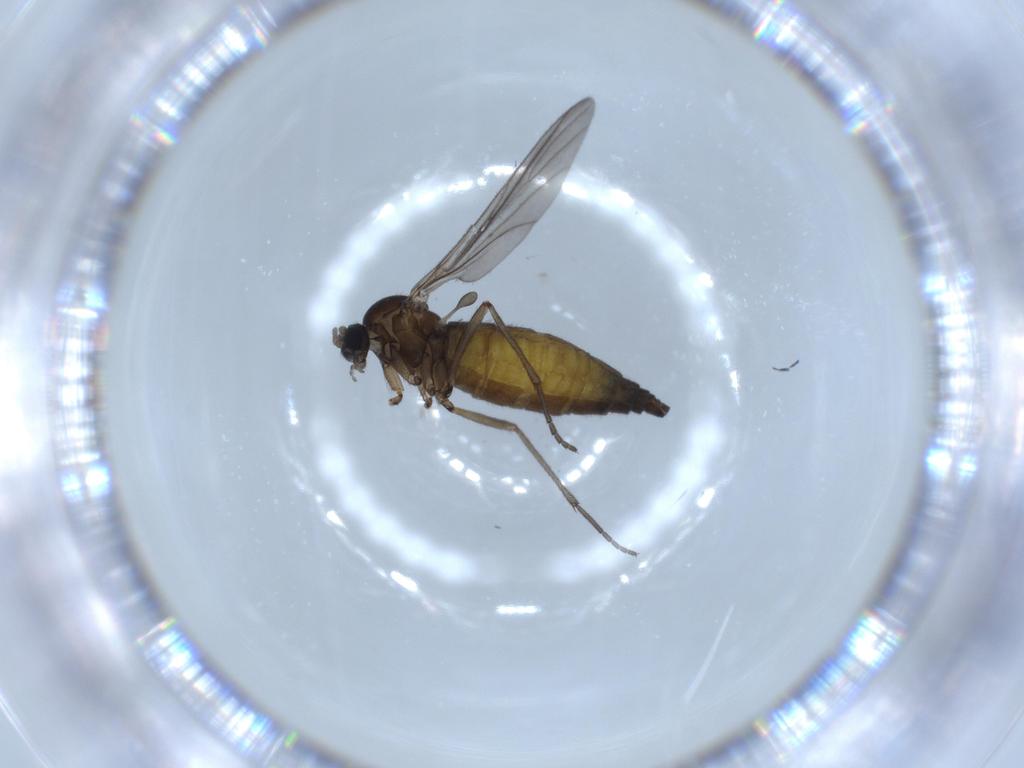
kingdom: Animalia
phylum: Arthropoda
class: Insecta
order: Diptera
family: Sciaridae
